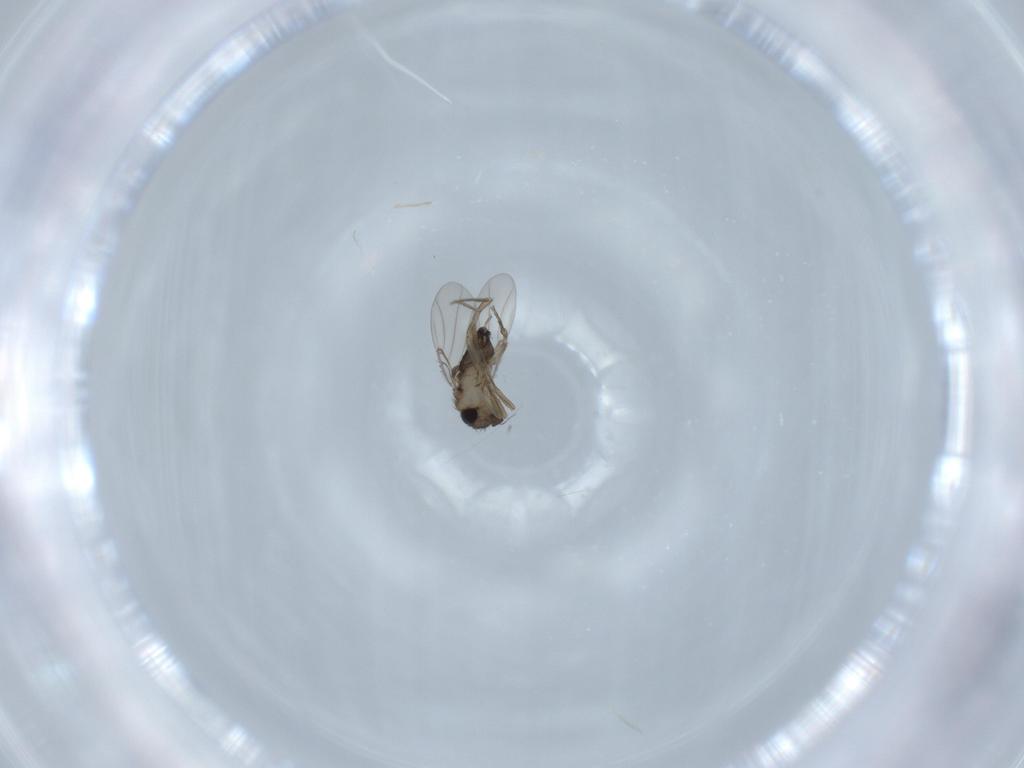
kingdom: Animalia
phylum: Arthropoda
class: Insecta
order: Diptera
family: Phoridae
